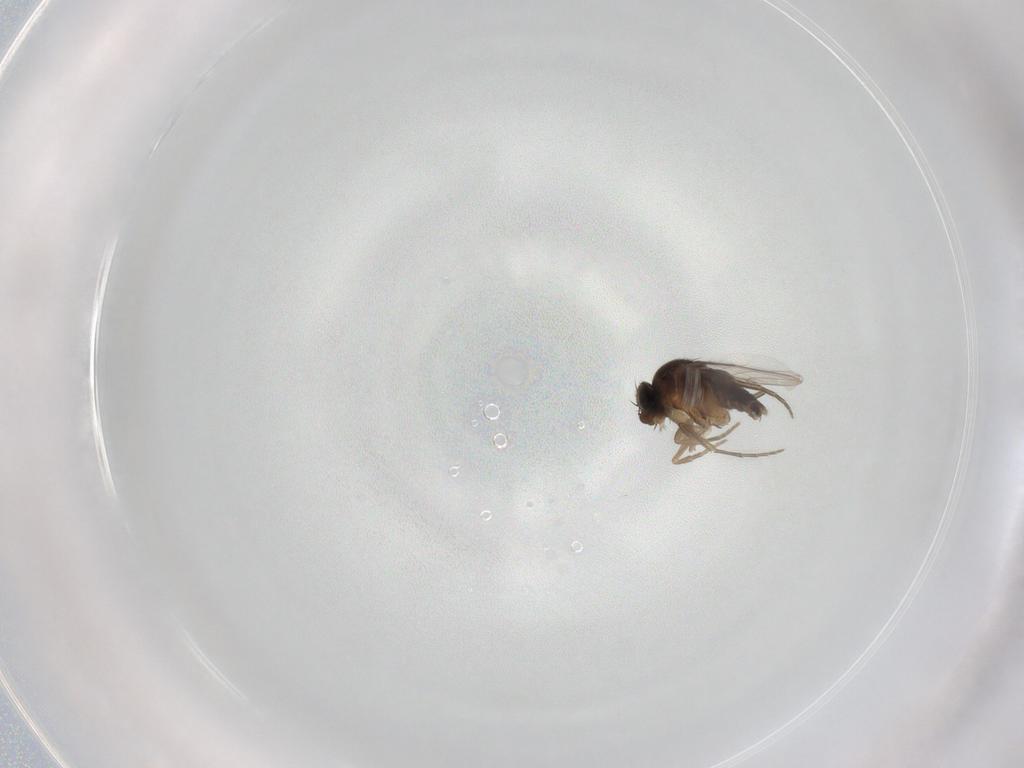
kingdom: Animalia
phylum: Arthropoda
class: Insecta
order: Diptera
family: Phoridae
